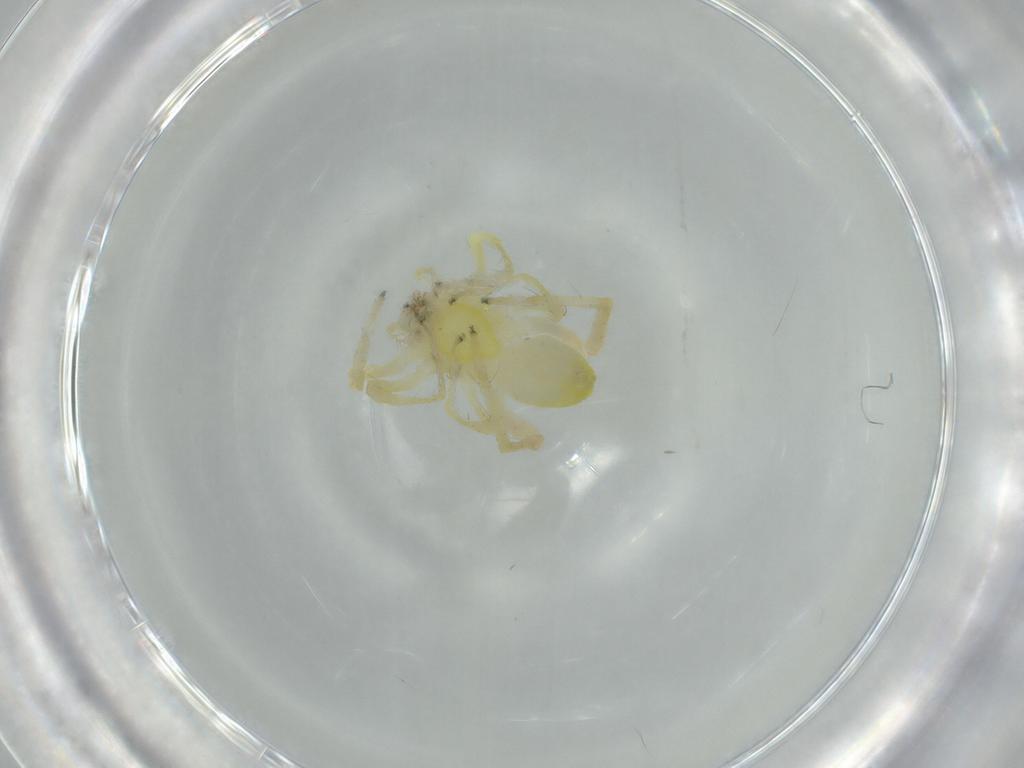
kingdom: Animalia
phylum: Arthropoda
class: Arachnida
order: Araneae
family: Anyphaenidae
